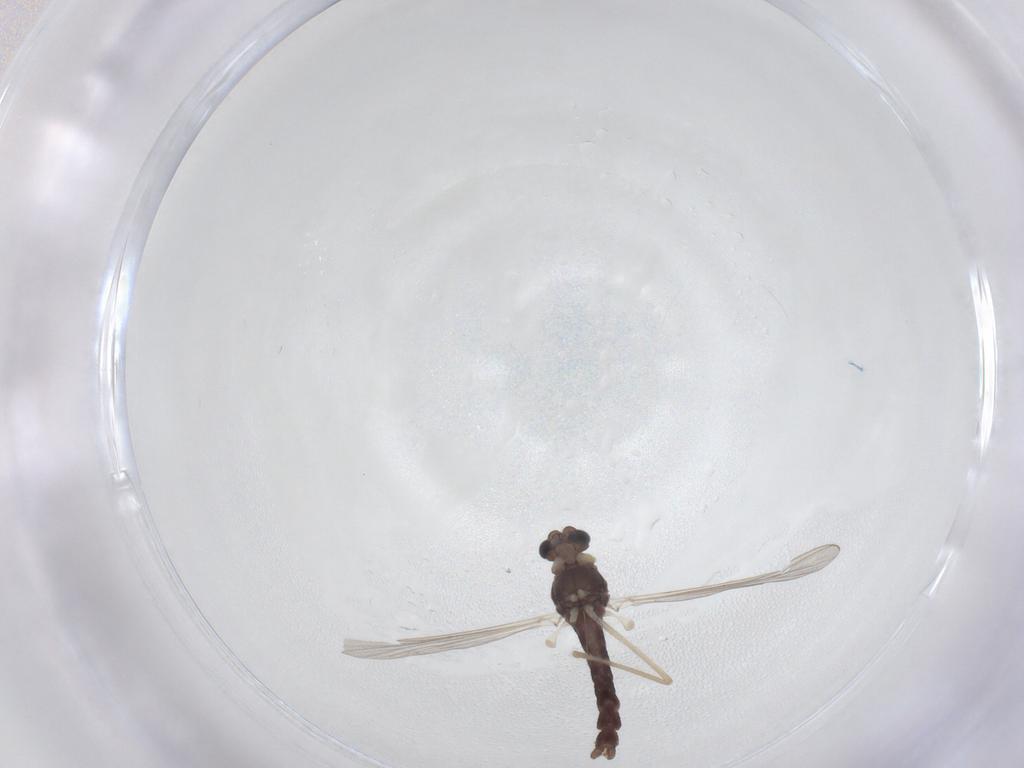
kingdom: Animalia
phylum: Arthropoda
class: Insecta
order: Diptera
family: Chironomidae
